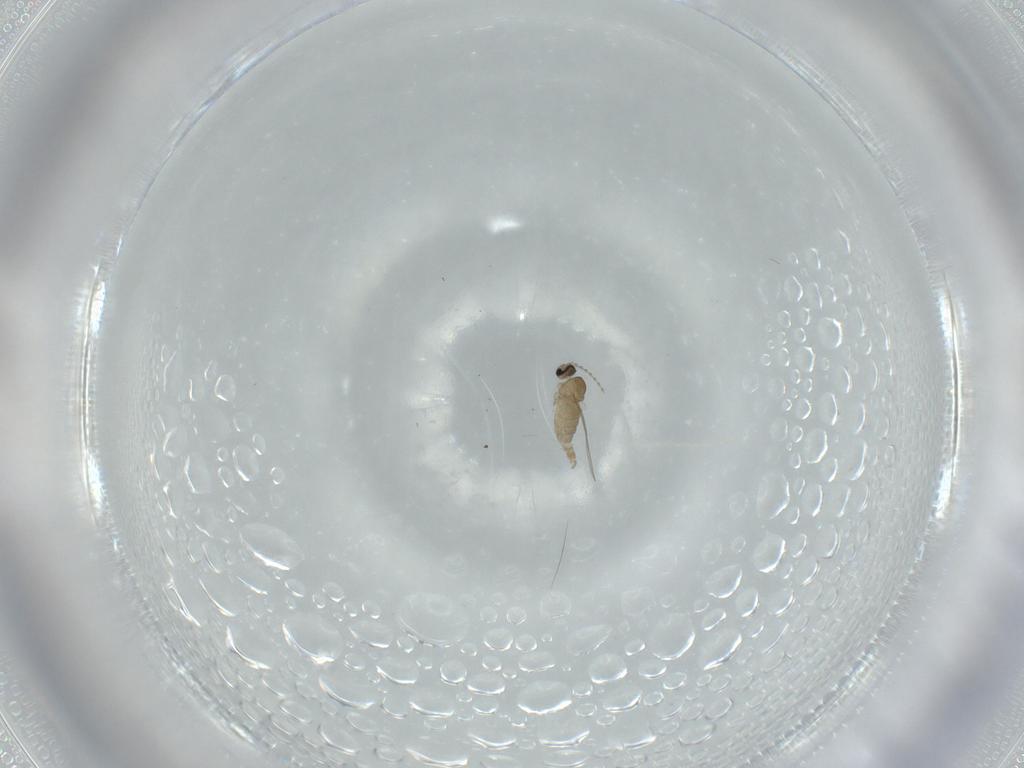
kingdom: Animalia
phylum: Arthropoda
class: Insecta
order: Diptera
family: Cecidomyiidae
